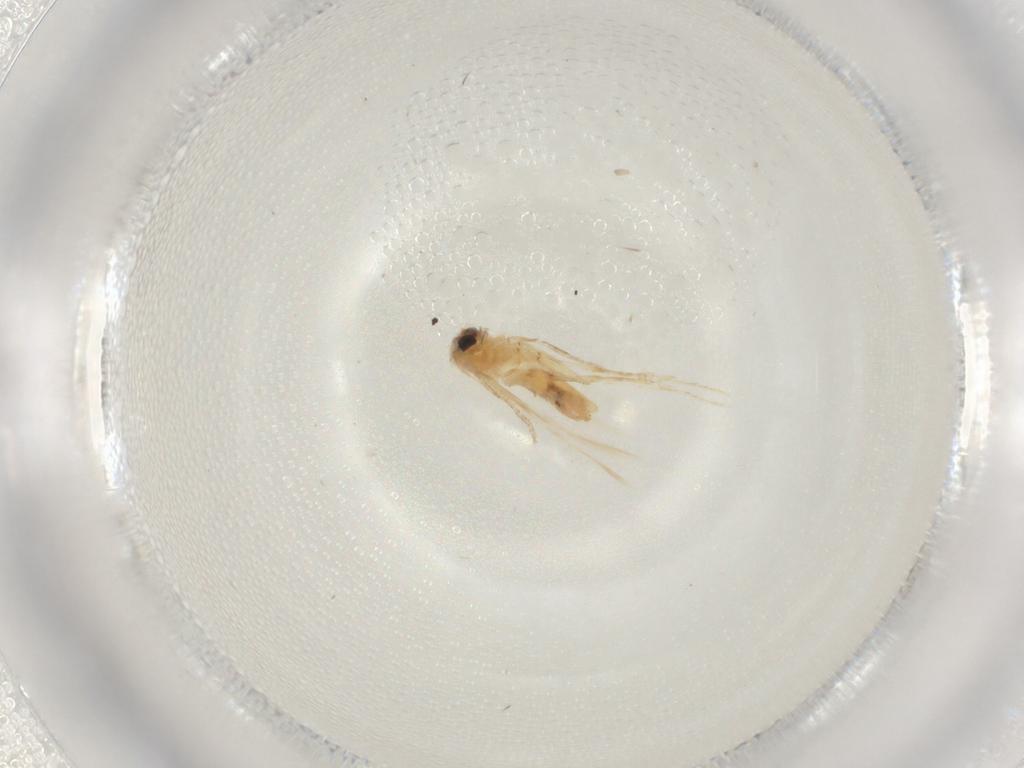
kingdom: Animalia
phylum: Arthropoda
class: Insecta
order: Lepidoptera
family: Nepticulidae
